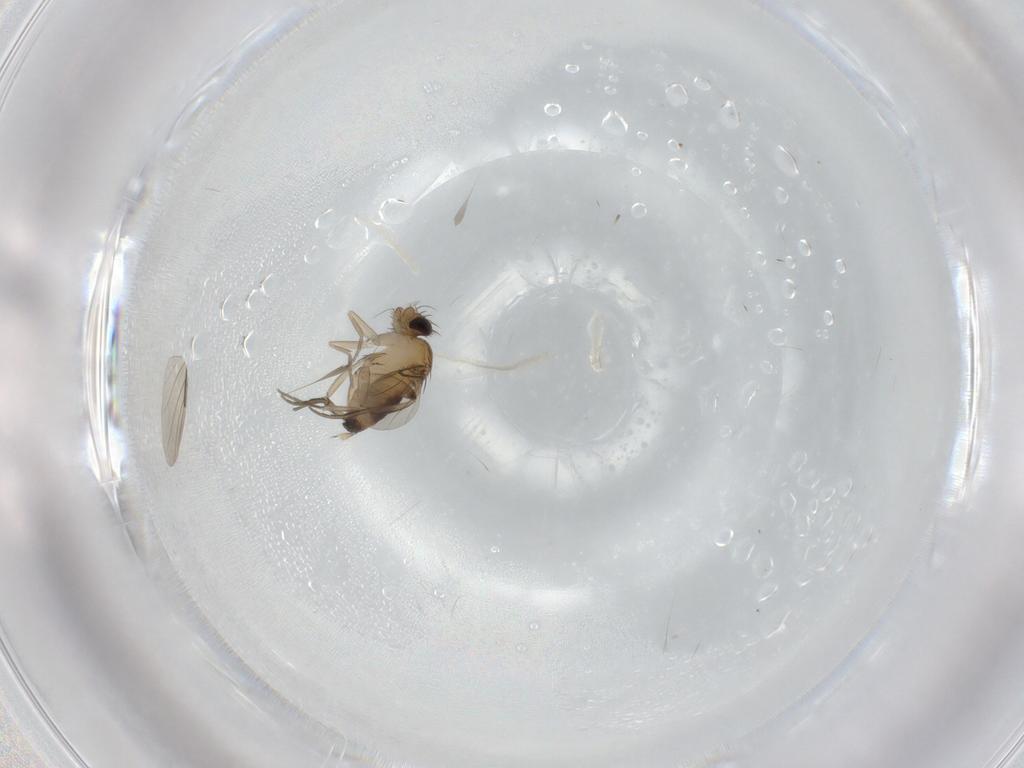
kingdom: Animalia
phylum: Arthropoda
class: Insecta
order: Diptera
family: Phoridae
